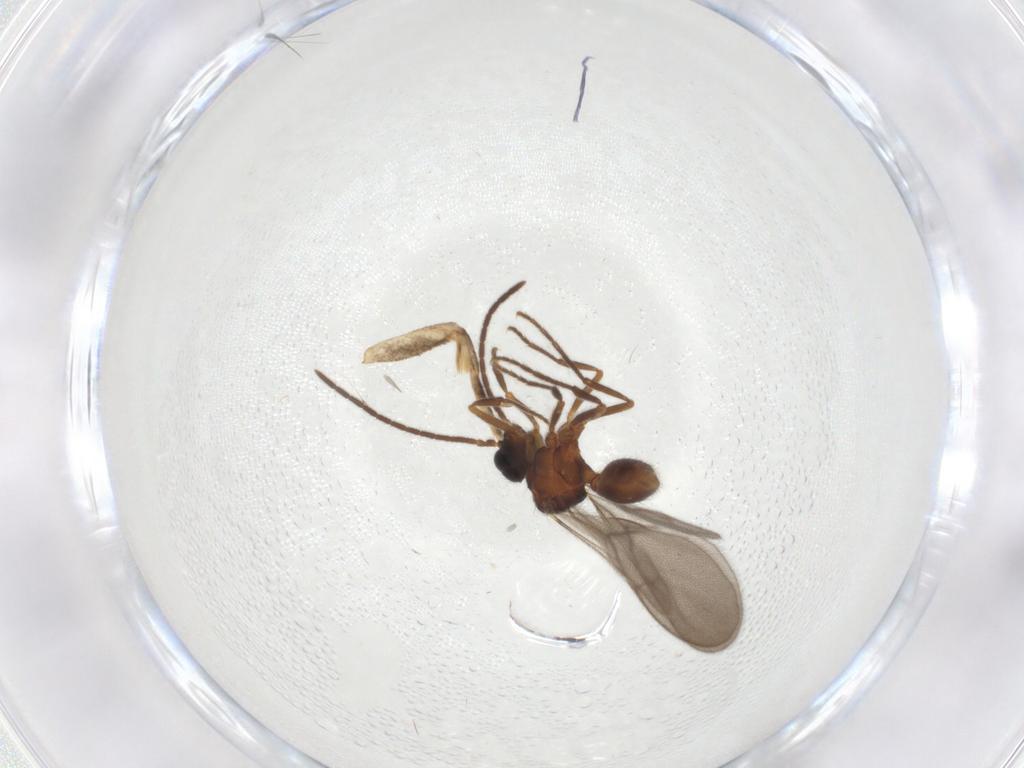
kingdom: Animalia
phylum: Arthropoda
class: Insecta
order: Hymenoptera
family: Formicidae
